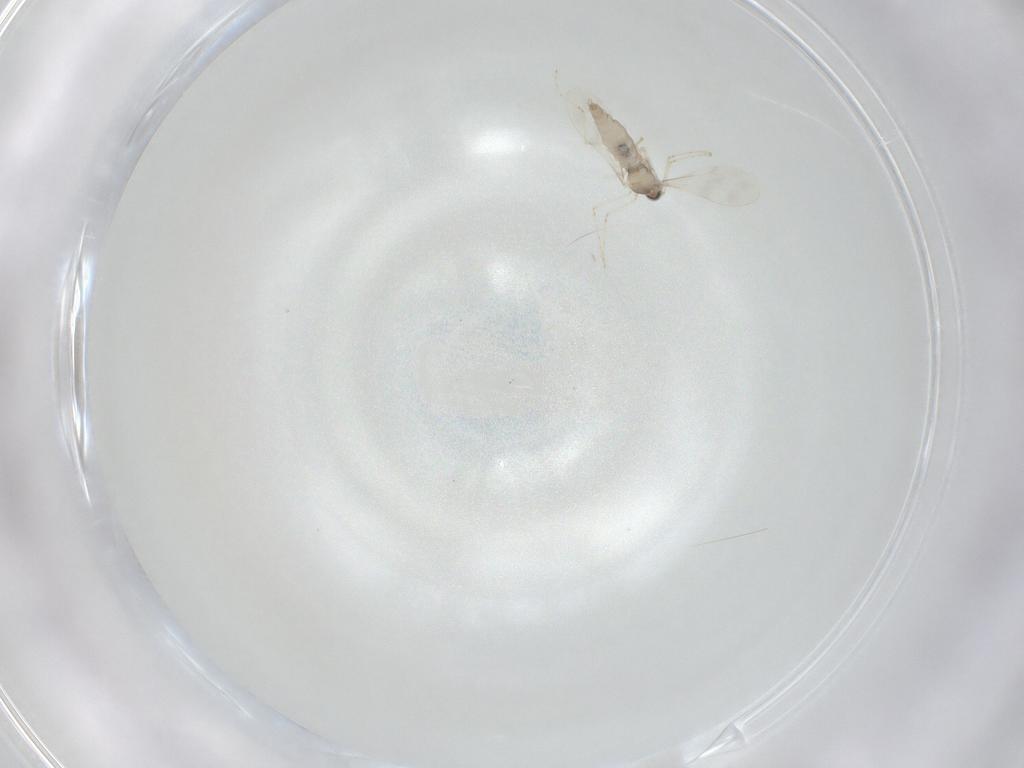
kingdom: Animalia
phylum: Arthropoda
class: Insecta
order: Diptera
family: Cecidomyiidae
